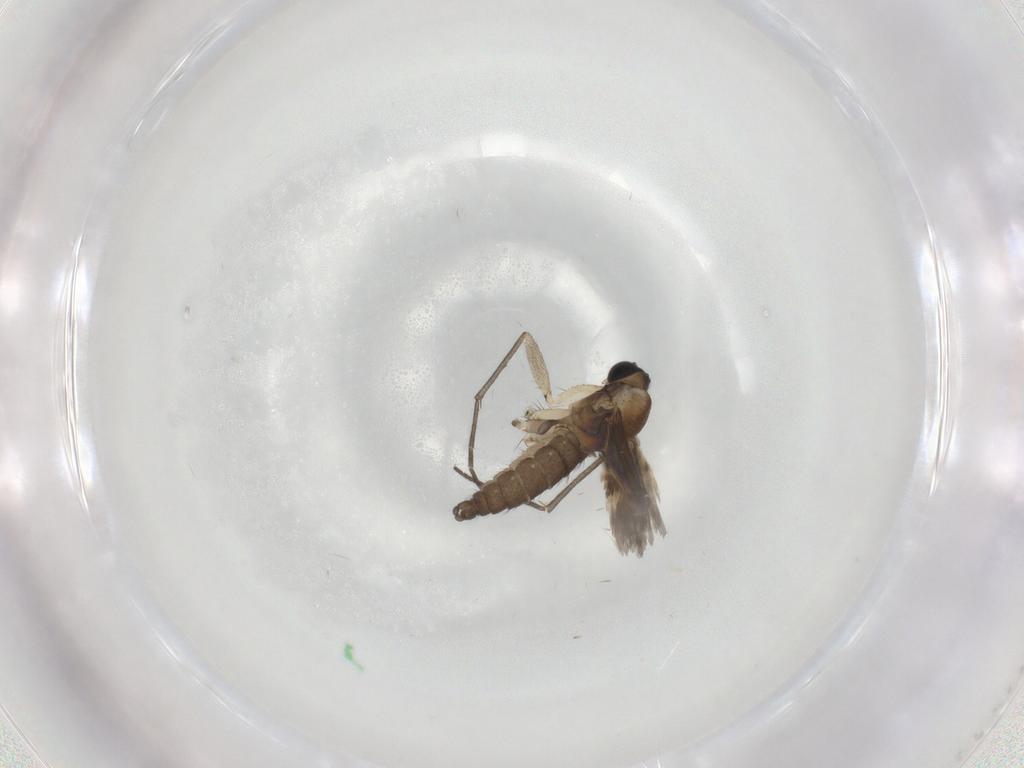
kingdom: Animalia
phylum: Arthropoda
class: Insecta
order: Diptera
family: Sciaridae
